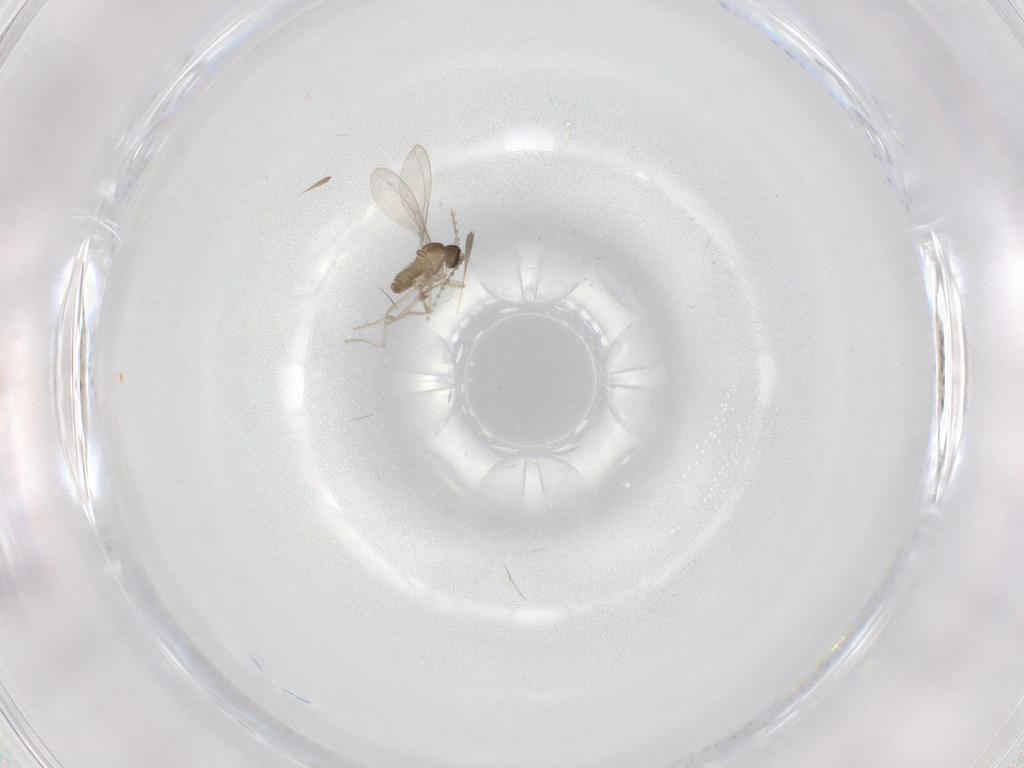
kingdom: Animalia
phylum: Arthropoda
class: Insecta
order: Diptera
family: Cecidomyiidae
